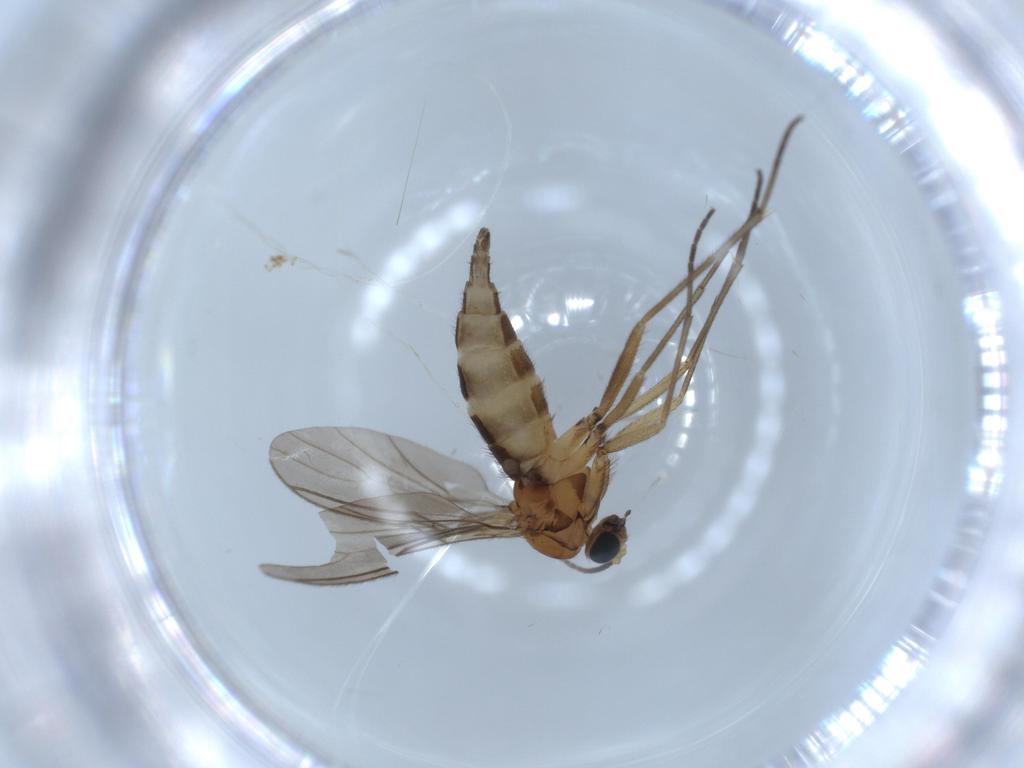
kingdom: Animalia
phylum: Arthropoda
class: Insecta
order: Diptera
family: Sciaridae
